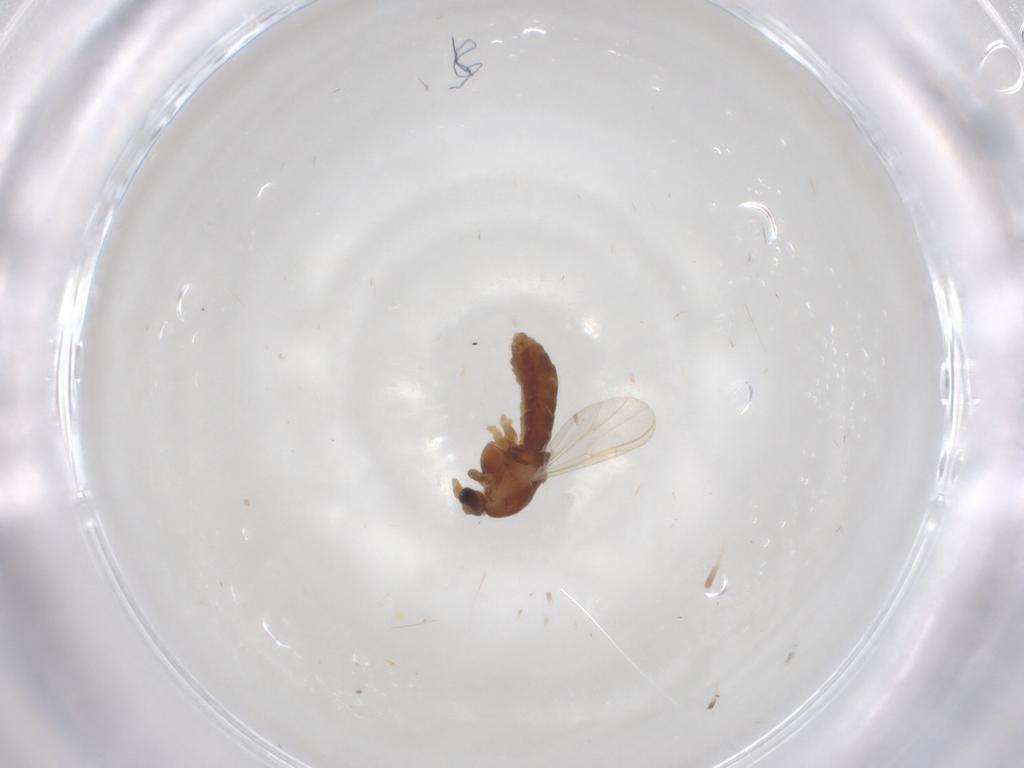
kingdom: Animalia
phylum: Arthropoda
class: Insecta
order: Diptera
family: Chironomidae
